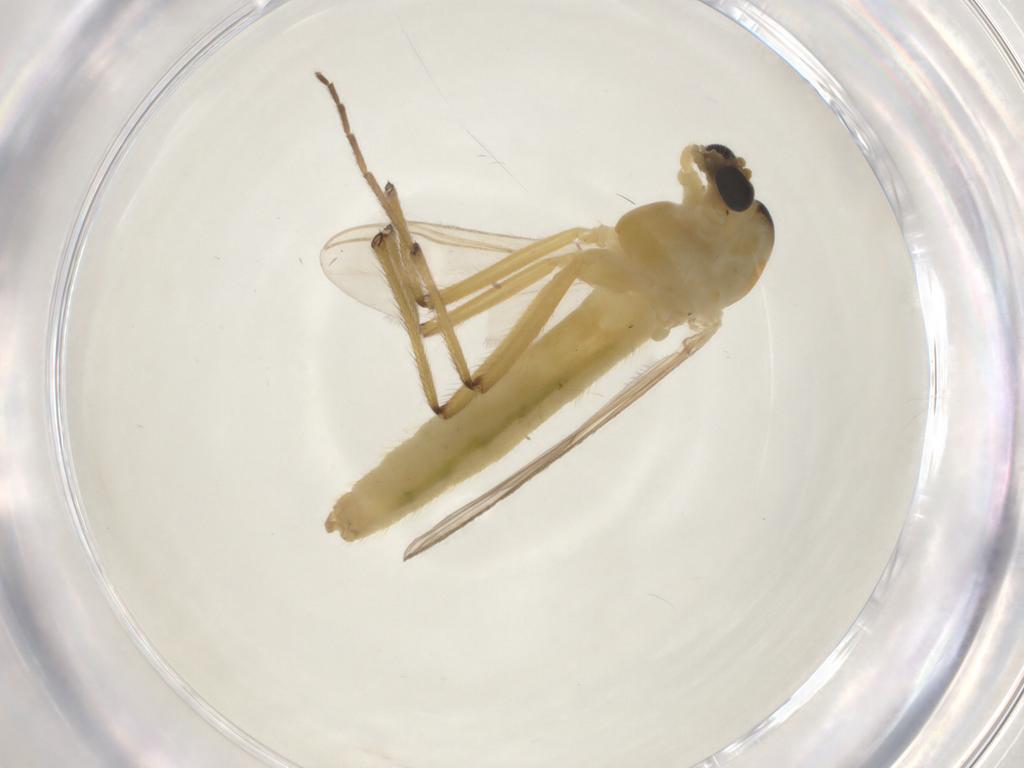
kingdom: Animalia
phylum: Arthropoda
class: Insecta
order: Diptera
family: Chironomidae
